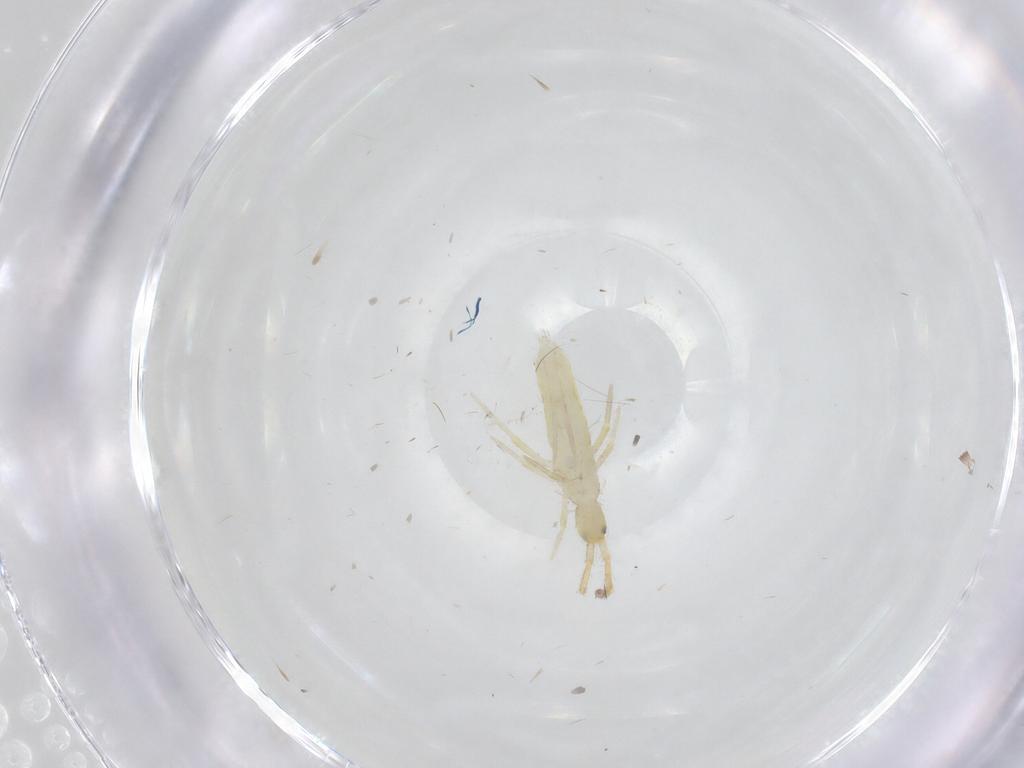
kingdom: Animalia
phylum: Arthropoda
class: Collembola
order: Entomobryomorpha
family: Entomobryidae
